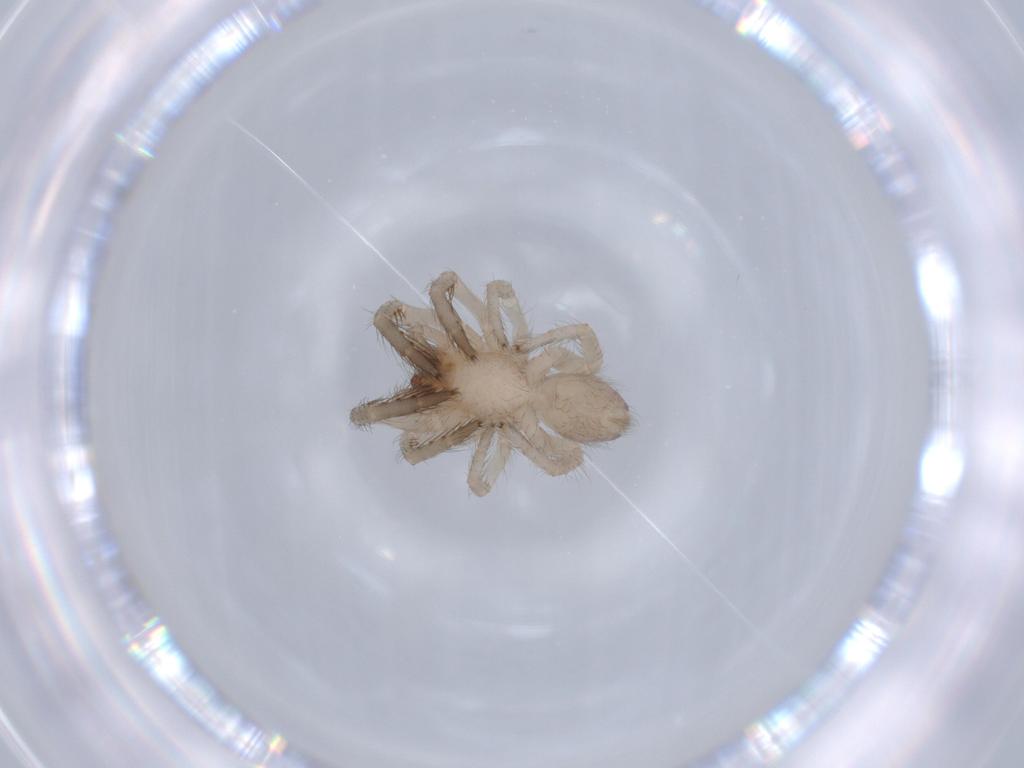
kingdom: Animalia
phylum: Arthropoda
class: Arachnida
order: Araneae
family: Segestriidae
